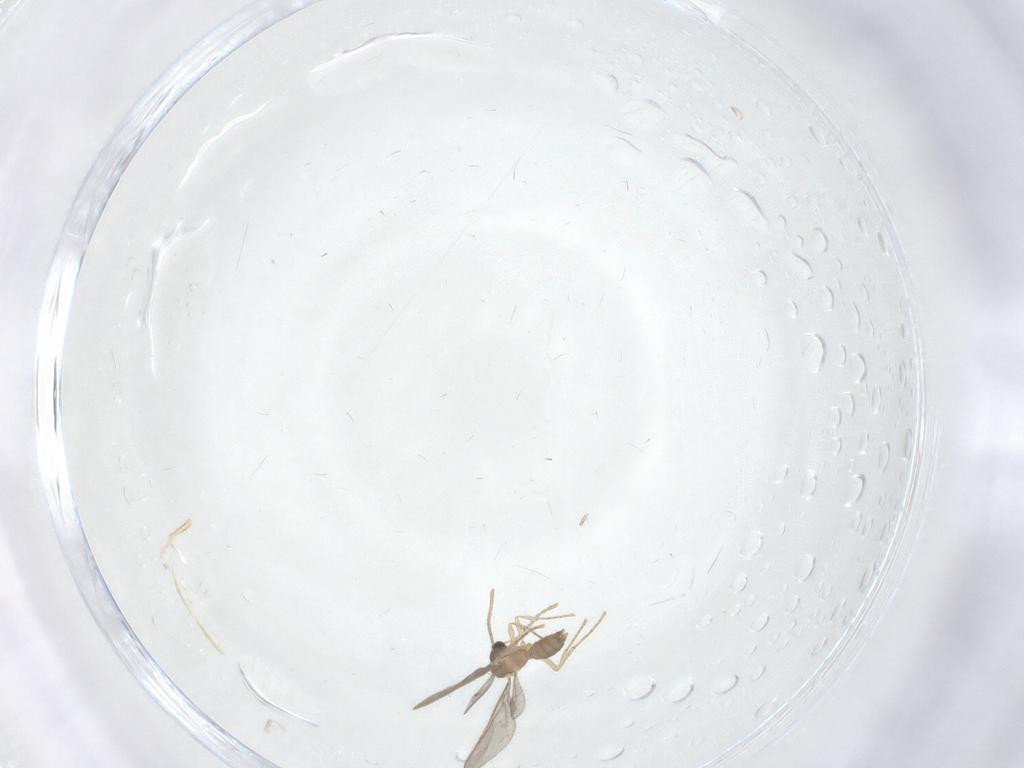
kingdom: Animalia
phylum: Arthropoda
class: Insecta
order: Hymenoptera
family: Formicidae
